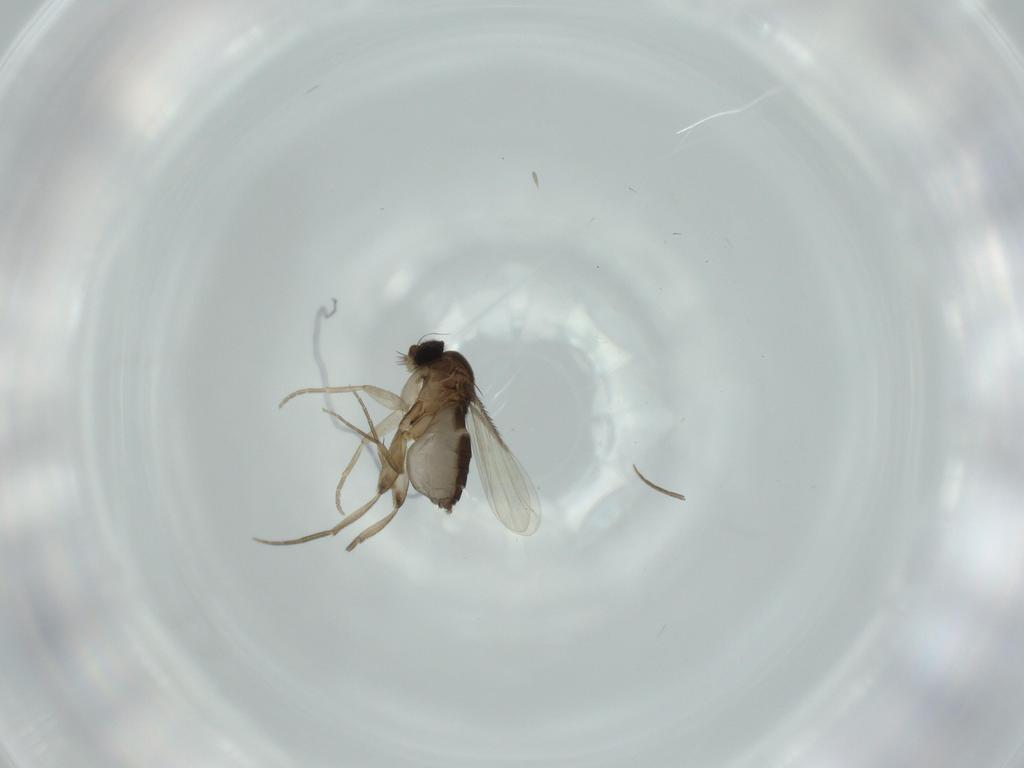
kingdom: Animalia
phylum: Arthropoda
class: Insecta
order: Diptera
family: Phoridae
